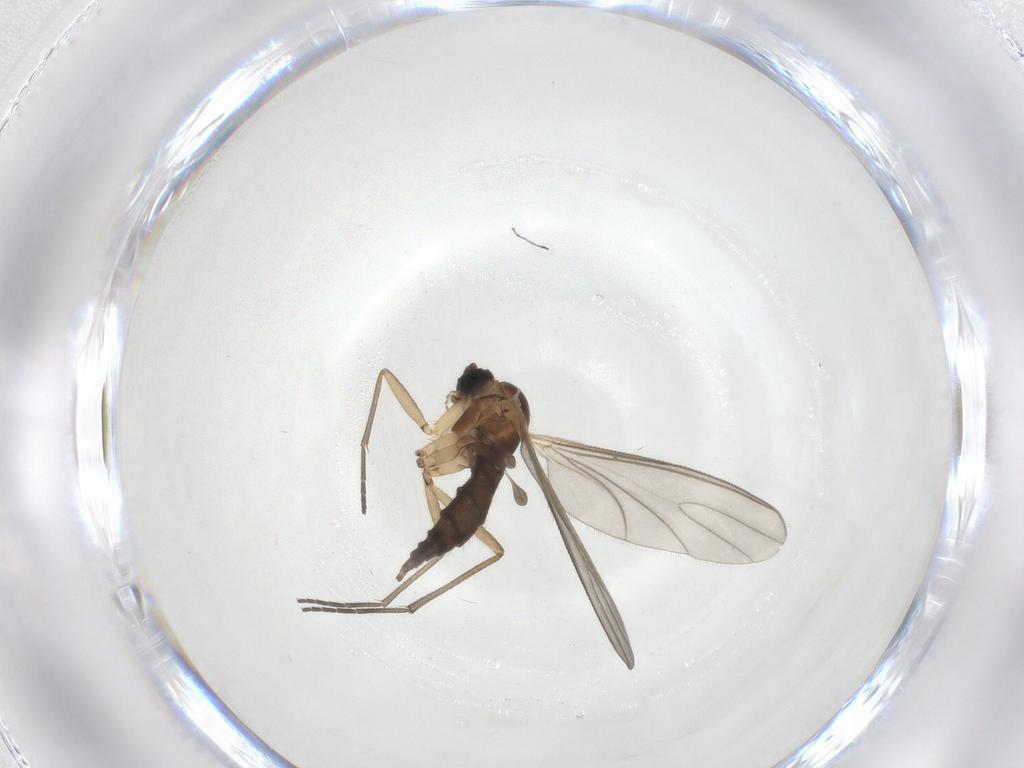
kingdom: Animalia
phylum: Arthropoda
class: Insecta
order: Diptera
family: Sciaridae
